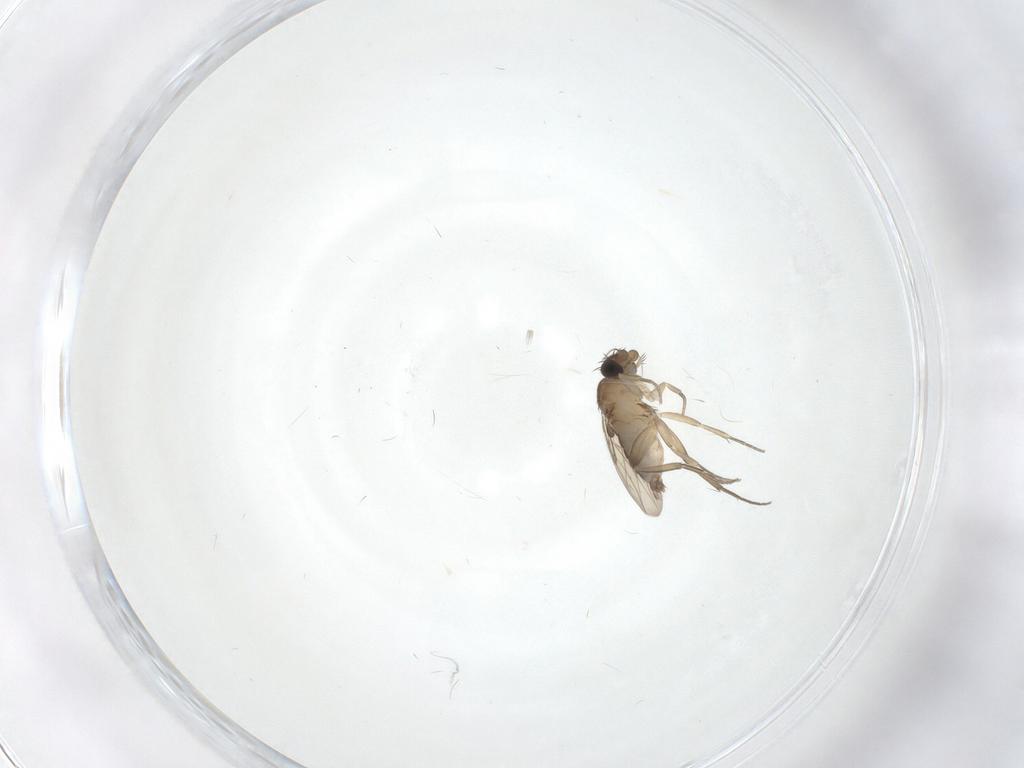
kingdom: Animalia
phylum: Arthropoda
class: Insecta
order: Diptera
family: Phoridae
